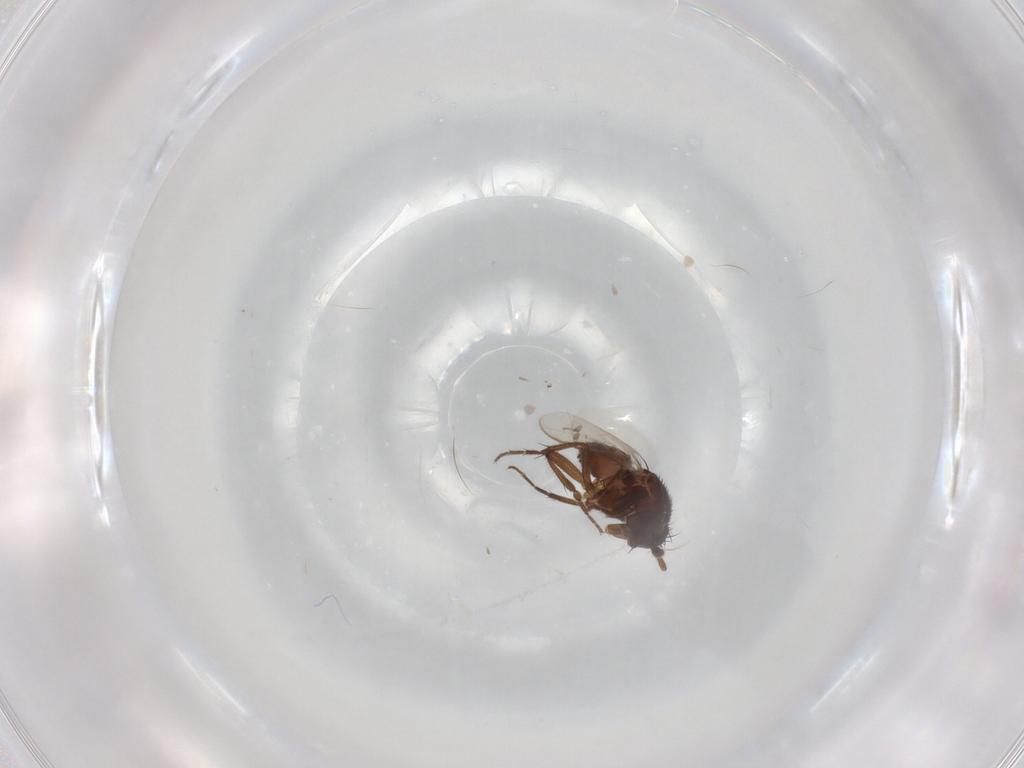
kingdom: Animalia
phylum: Arthropoda
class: Insecta
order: Diptera
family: Sphaeroceridae
